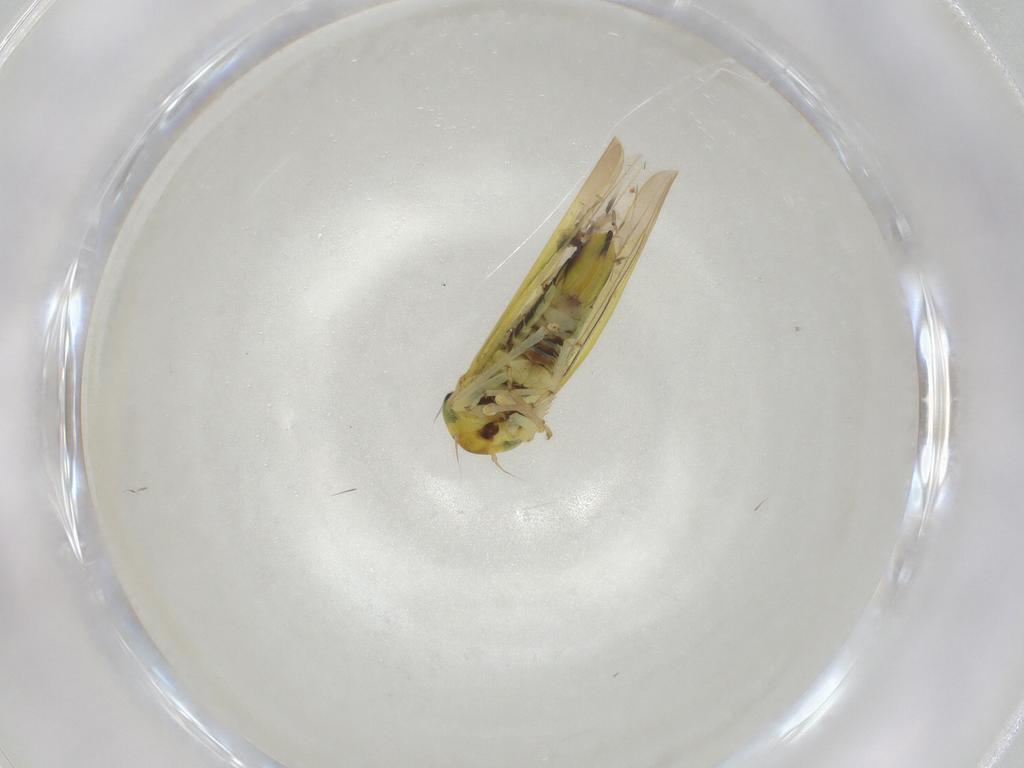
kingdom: Animalia
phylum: Arthropoda
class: Insecta
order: Hemiptera
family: Cicadellidae
